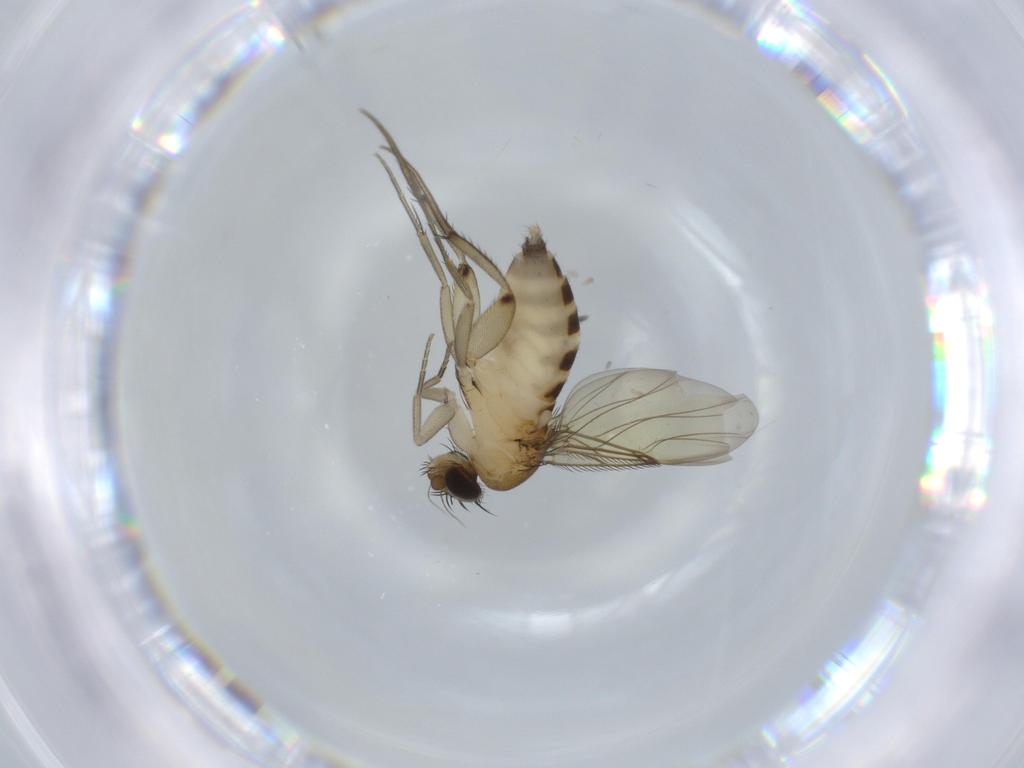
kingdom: Animalia
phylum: Arthropoda
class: Insecta
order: Diptera
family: Phoridae
